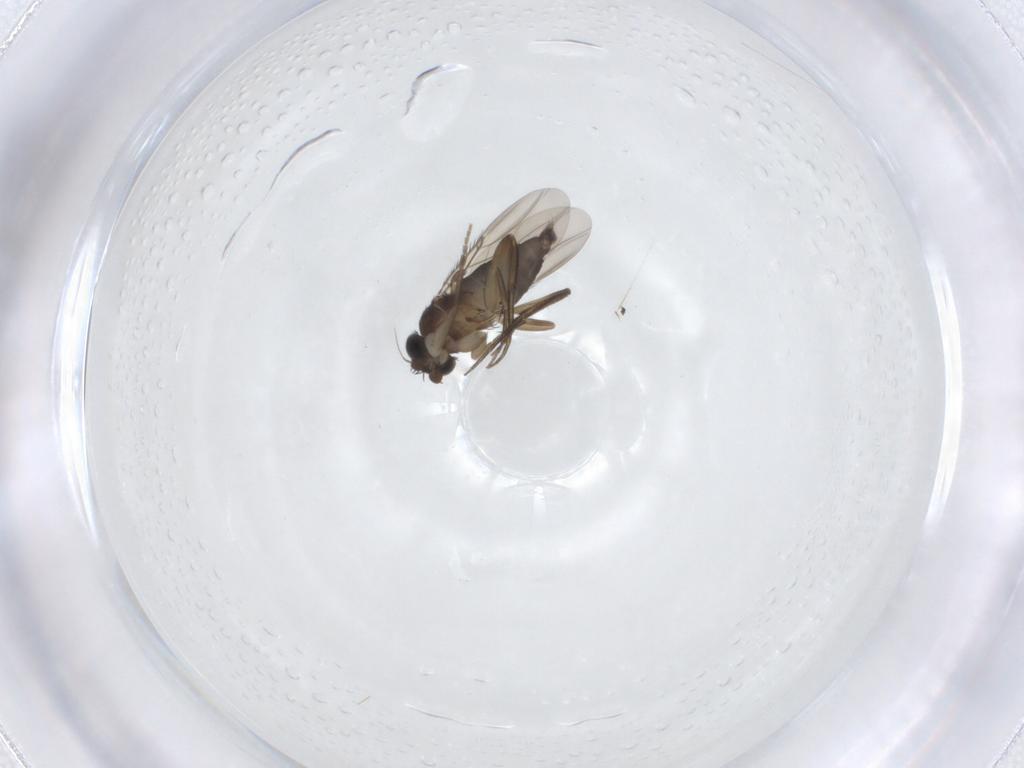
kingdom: Animalia
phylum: Arthropoda
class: Insecta
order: Diptera
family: Phoridae
